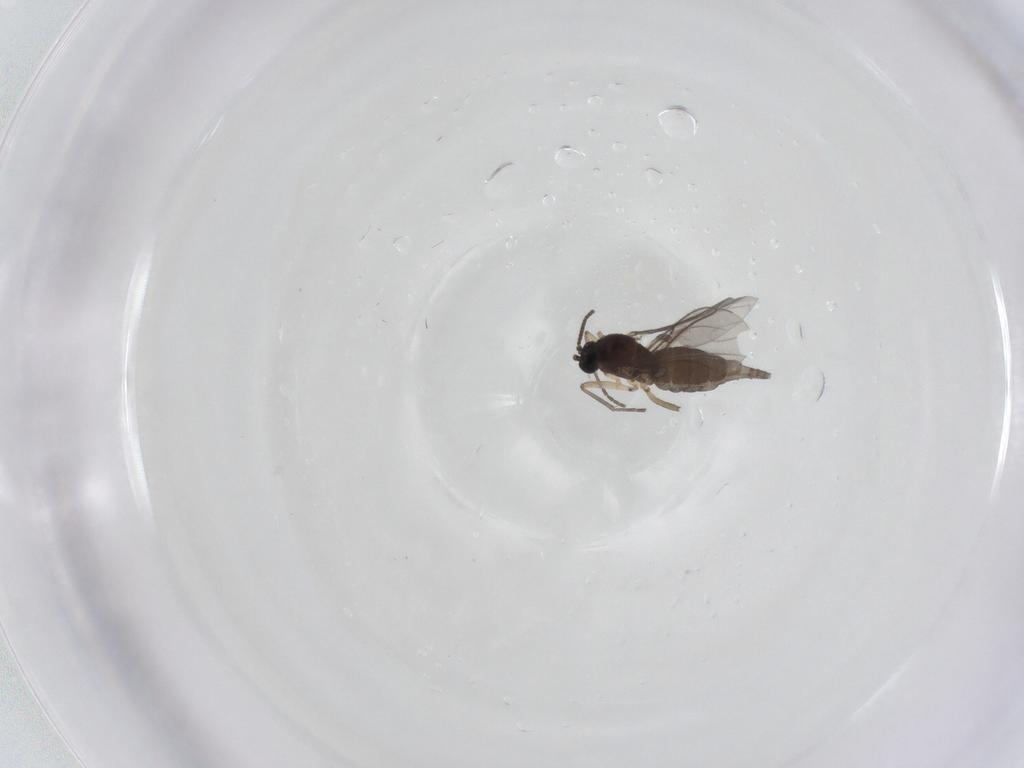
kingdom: Animalia
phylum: Arthropoda
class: Insecta
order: Diptera
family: Sciaridae
